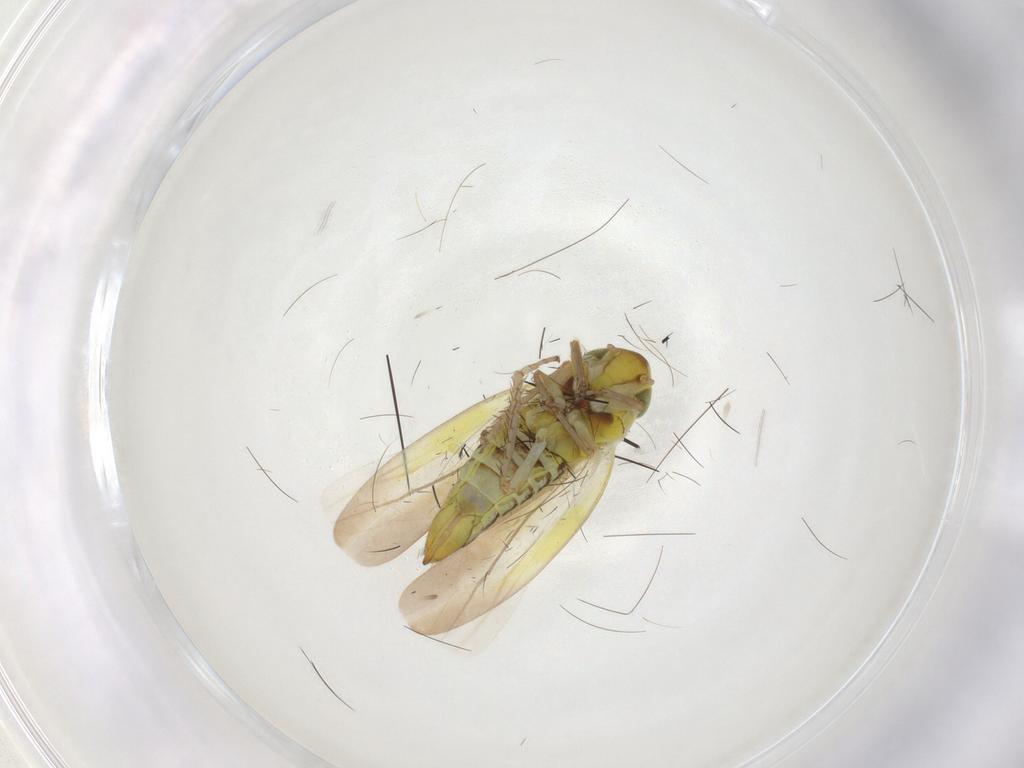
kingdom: Animalia
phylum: Arthropoda
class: Insecta
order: Hemiptera
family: Cicadellidae
